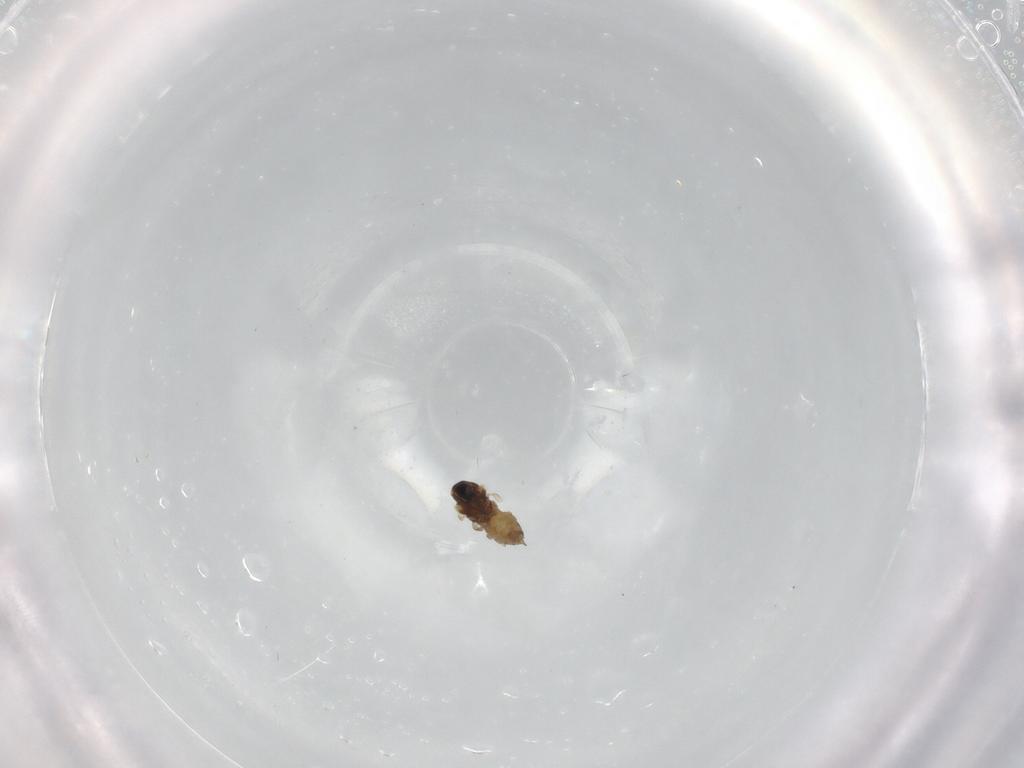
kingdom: Animalia
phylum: Arthropoda
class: Insecta
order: Diptera
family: Cecidomyiidae
